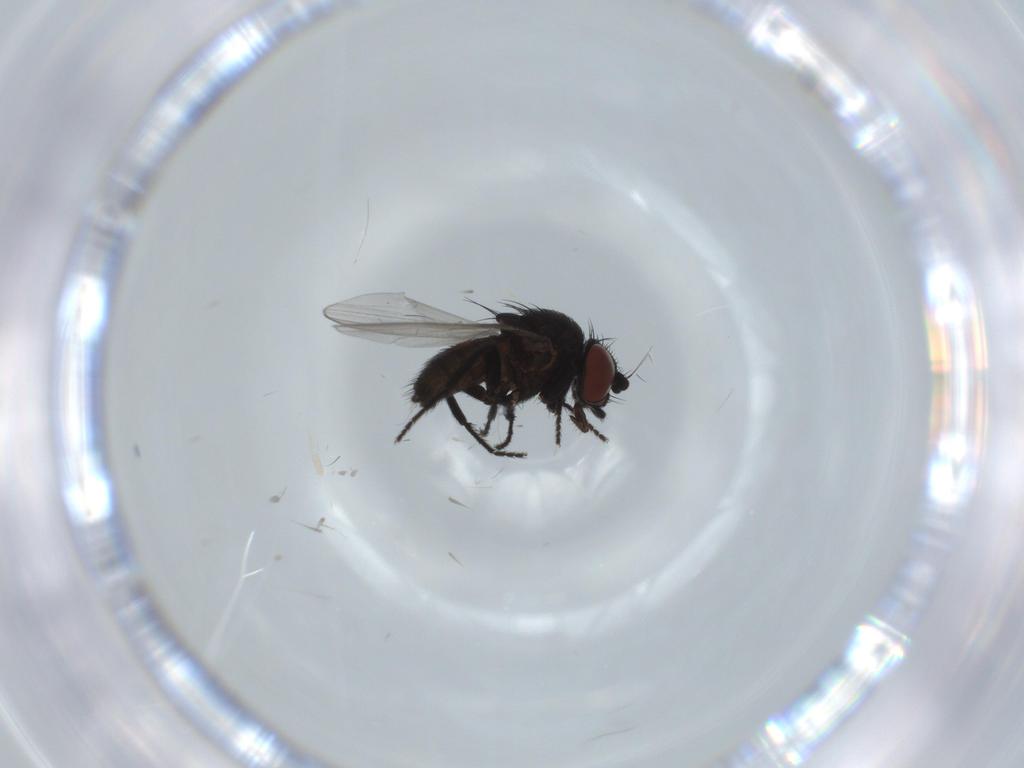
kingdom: Animalia
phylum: Arthropoda
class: Insecta
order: Diptera
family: Milichiidae
